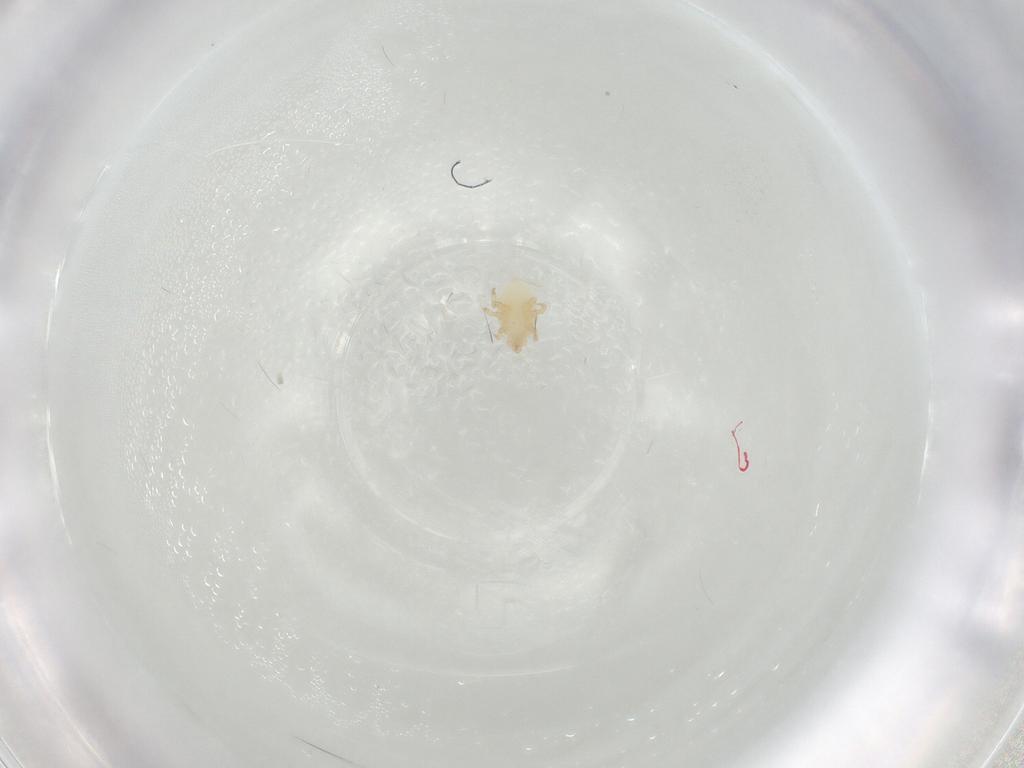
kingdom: Animalia
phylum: Arthropoda
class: Arachnida
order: Mesostigmata
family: Parasitidae
